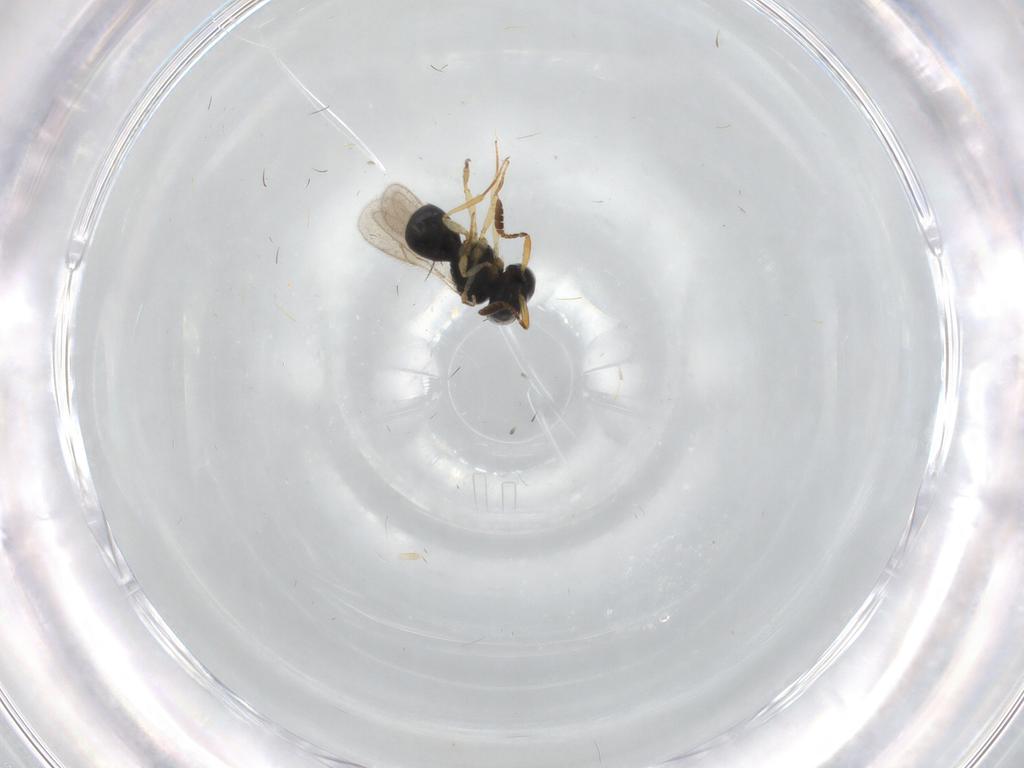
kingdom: Animalia
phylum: Arthropoda
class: Insecta
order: Hymenoptera
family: Scelionidae
